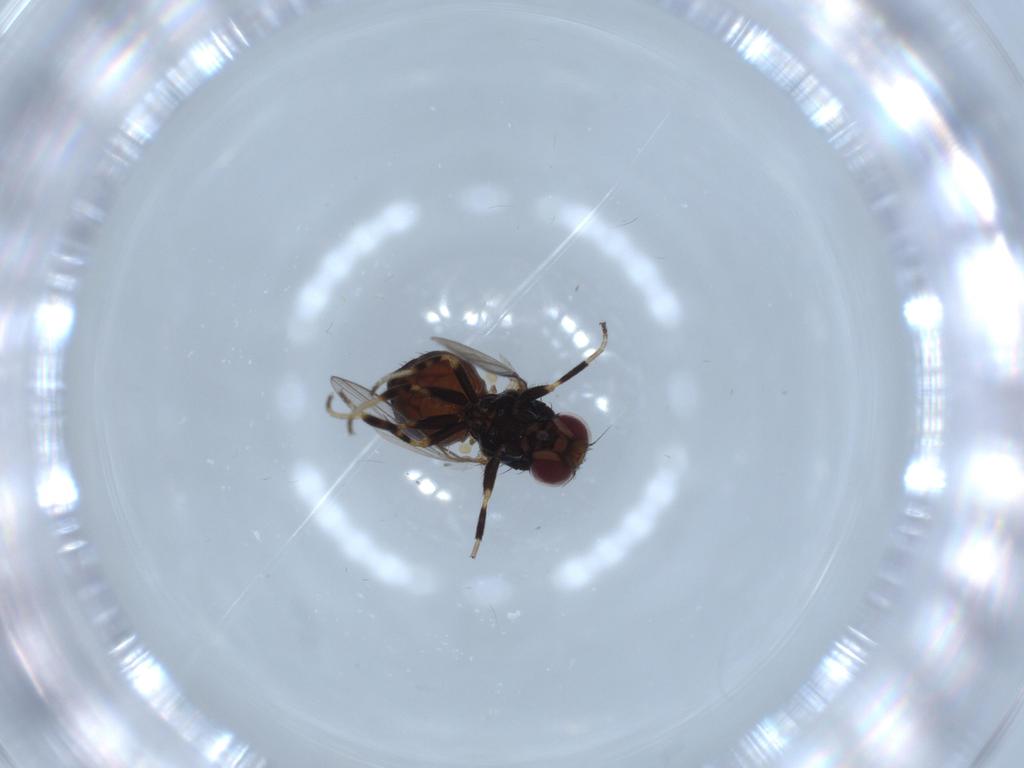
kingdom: Animalia
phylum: Arthropoda
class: Insecta
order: Diptera
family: Chloropidae
